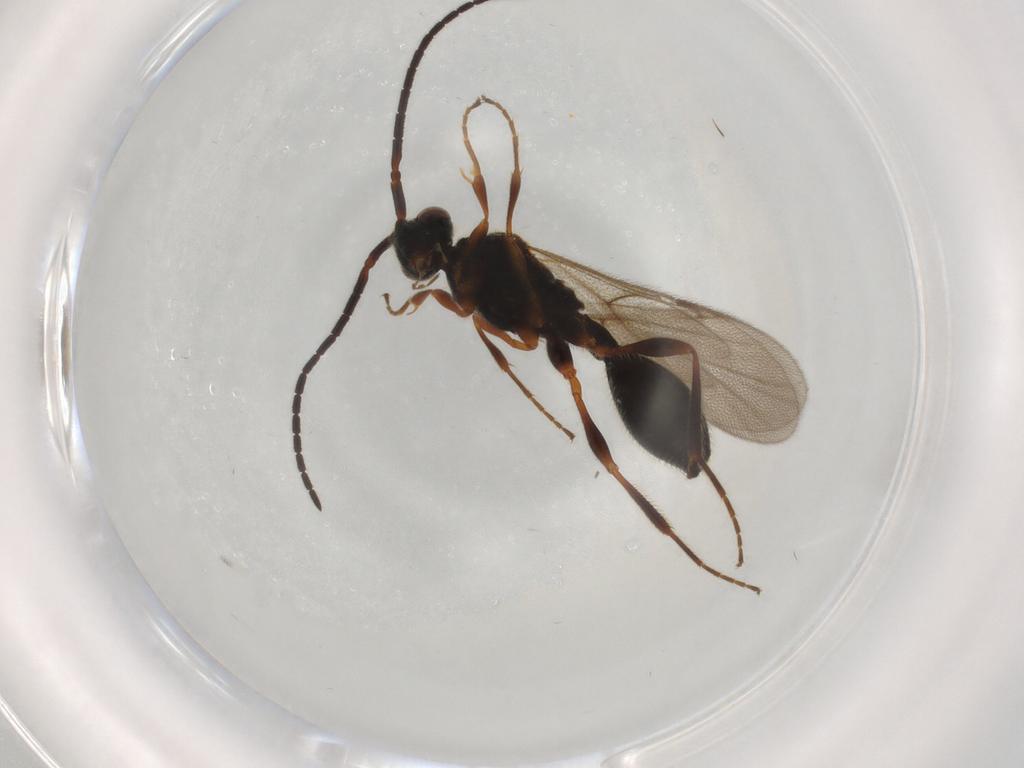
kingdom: Animalia
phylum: Arthropoda
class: Insecta
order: Hymenoptera
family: Diapriidae
